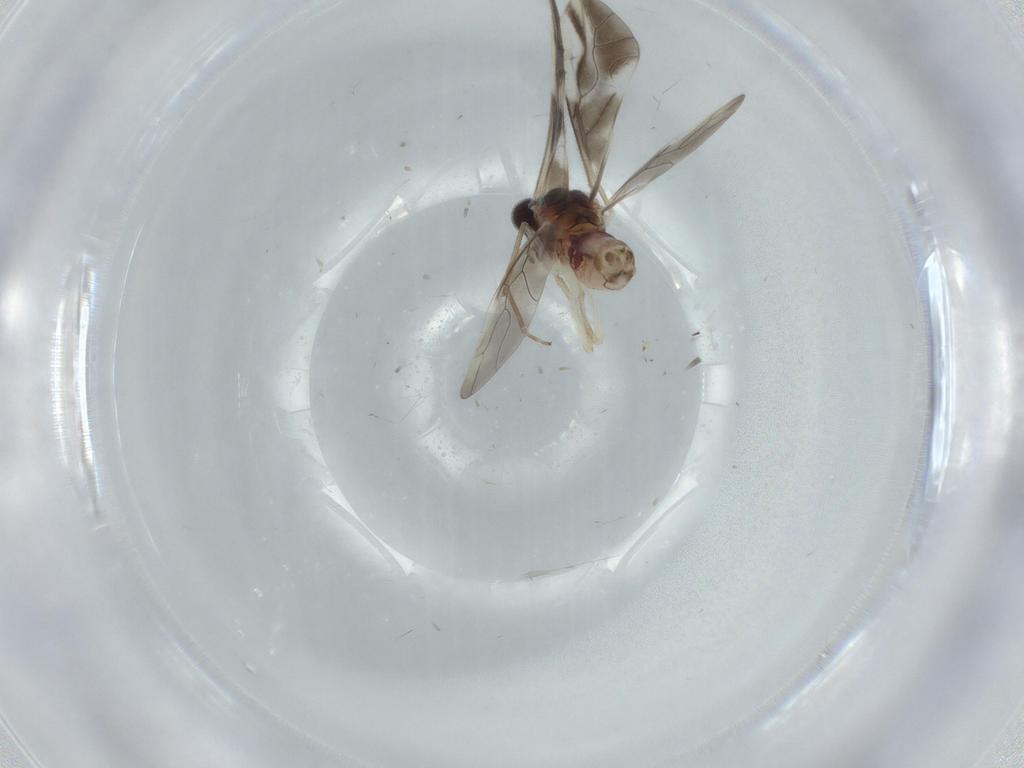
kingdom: Animalia
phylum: Arthropoda
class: Insecta
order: Psocodea
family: Caeciliusidae
